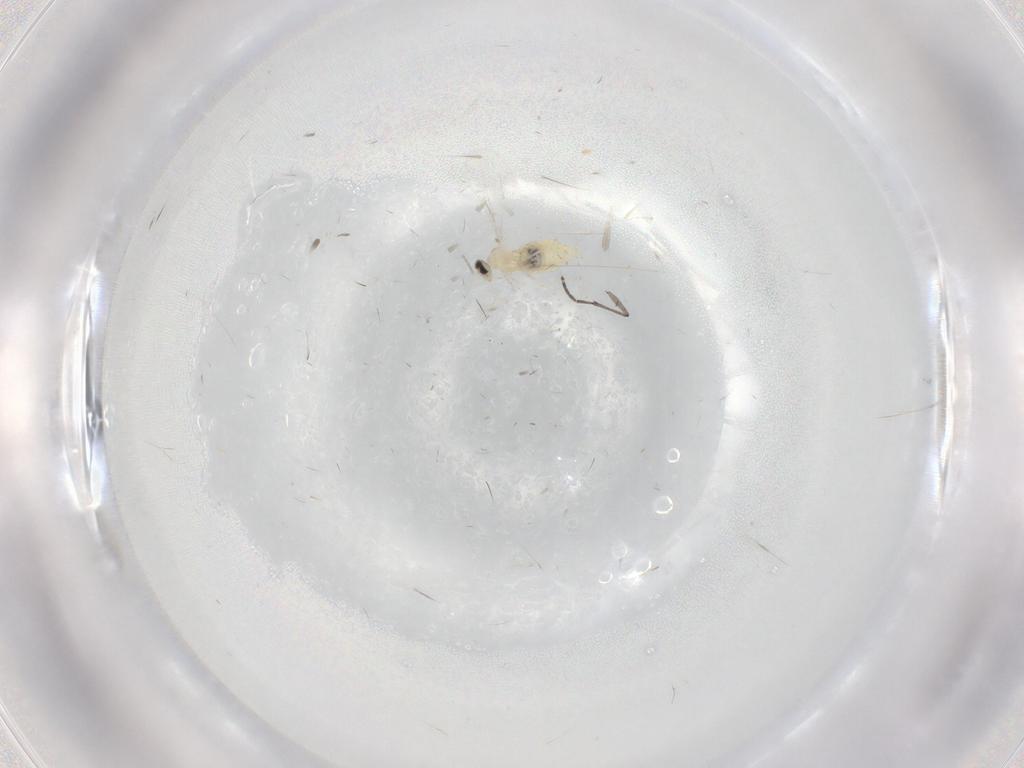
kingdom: Animalia
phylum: Arthropoda
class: Insecta
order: Diptera
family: Cecidomyiidae
